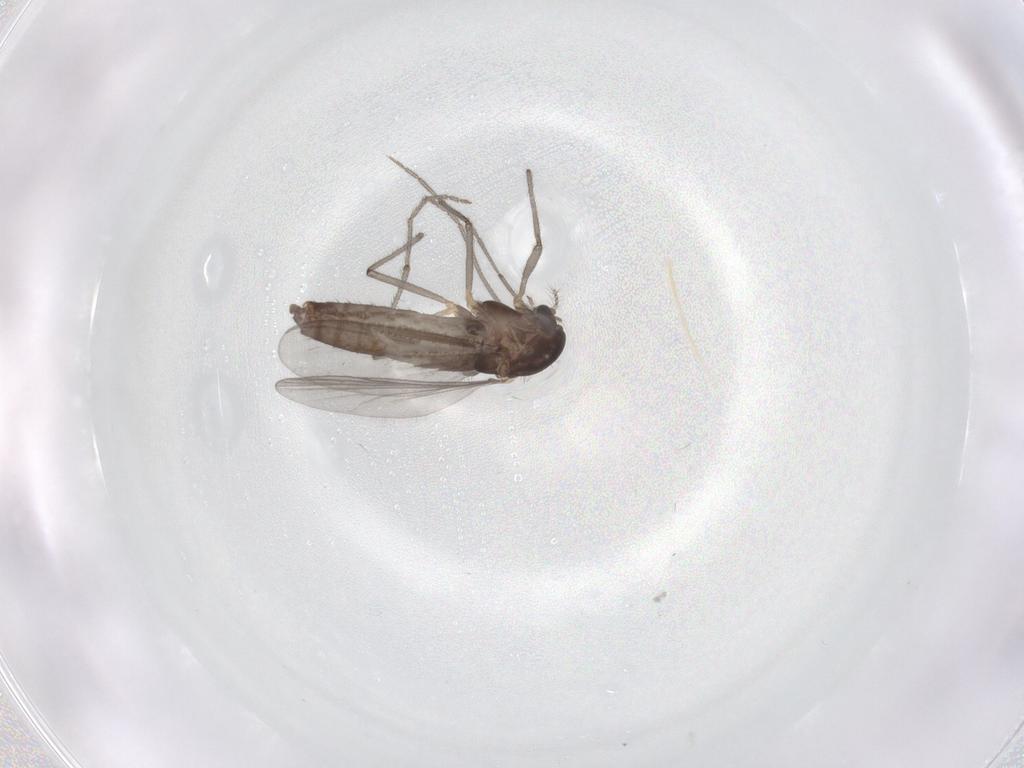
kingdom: Animalia
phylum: Arthropoda
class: Insecta
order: Diptera
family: Chironomidae
